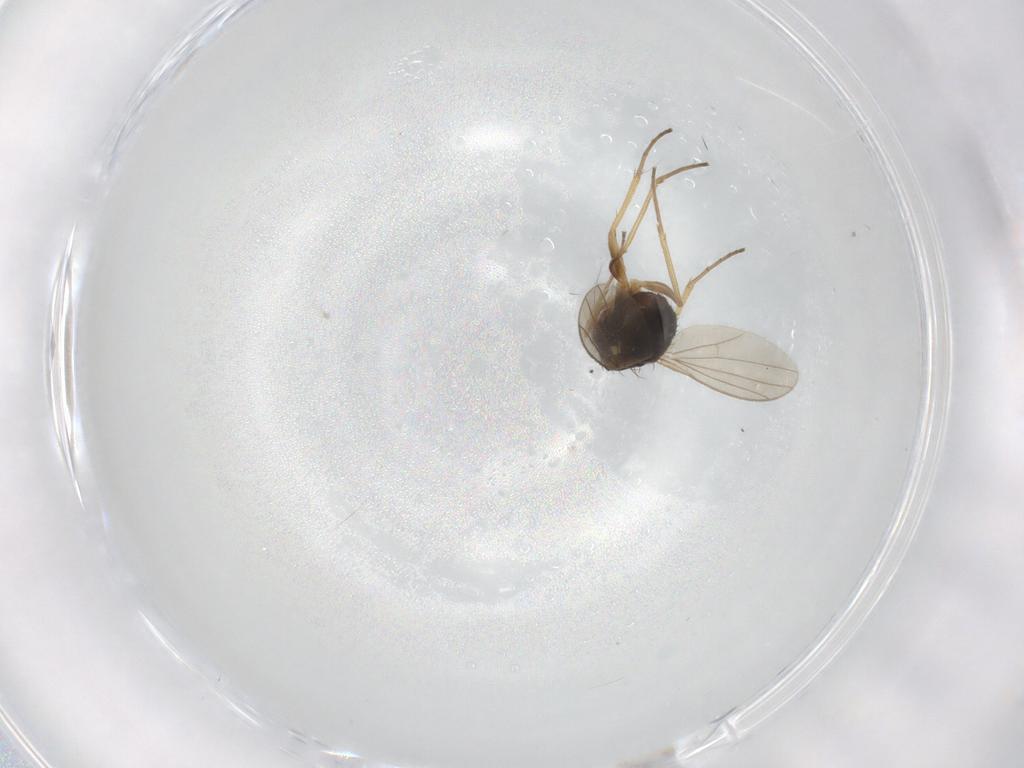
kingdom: Animalia
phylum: Arthropoda
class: Insecta
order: Diptera
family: Dolichopodidae
